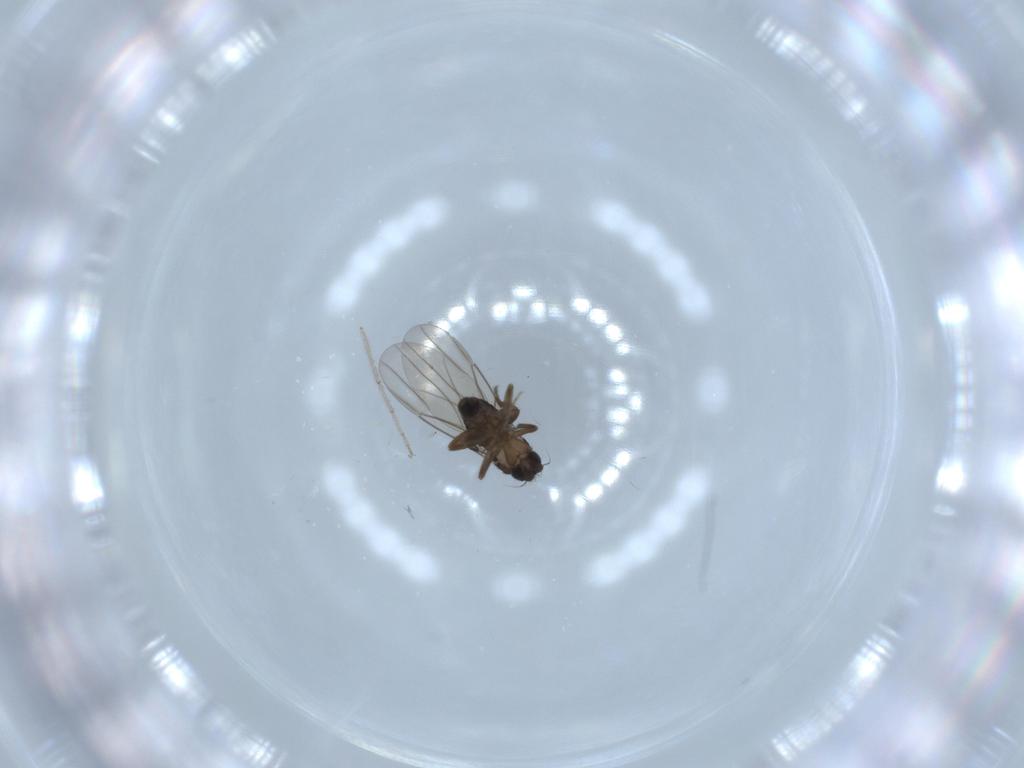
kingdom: Animalia
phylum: Arthropoda
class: Insecta
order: Diptera
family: Phoridae
